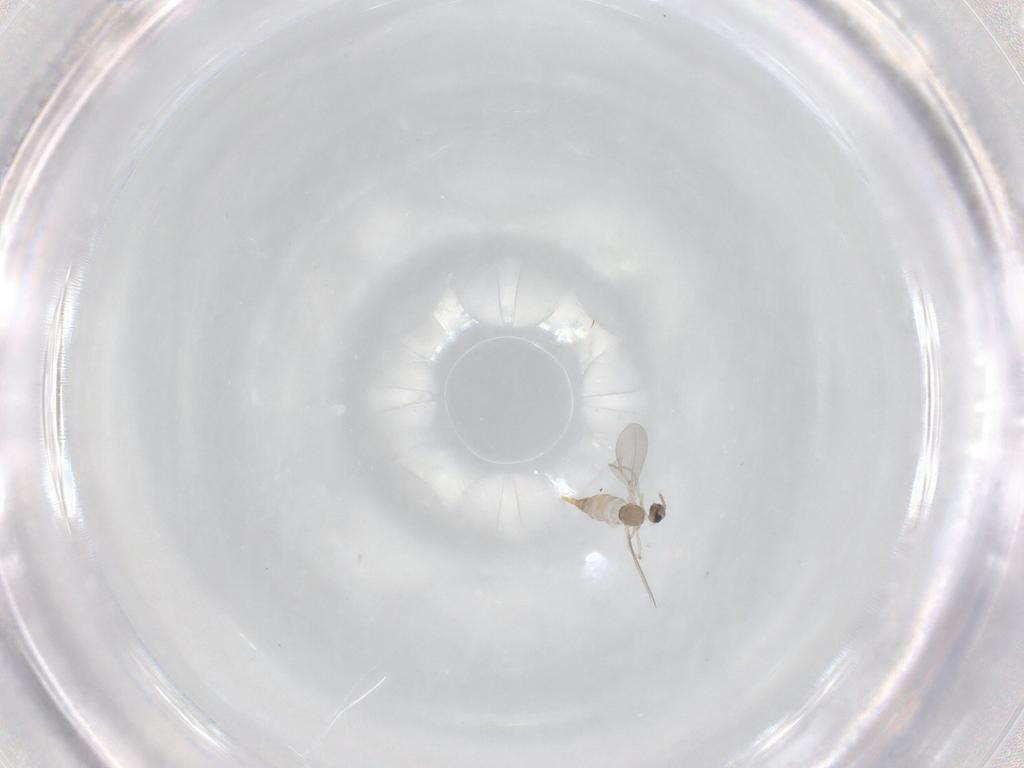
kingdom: Animalia
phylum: Arthropoda
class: Insecta
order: Diptera
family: Cecidomyiidae
